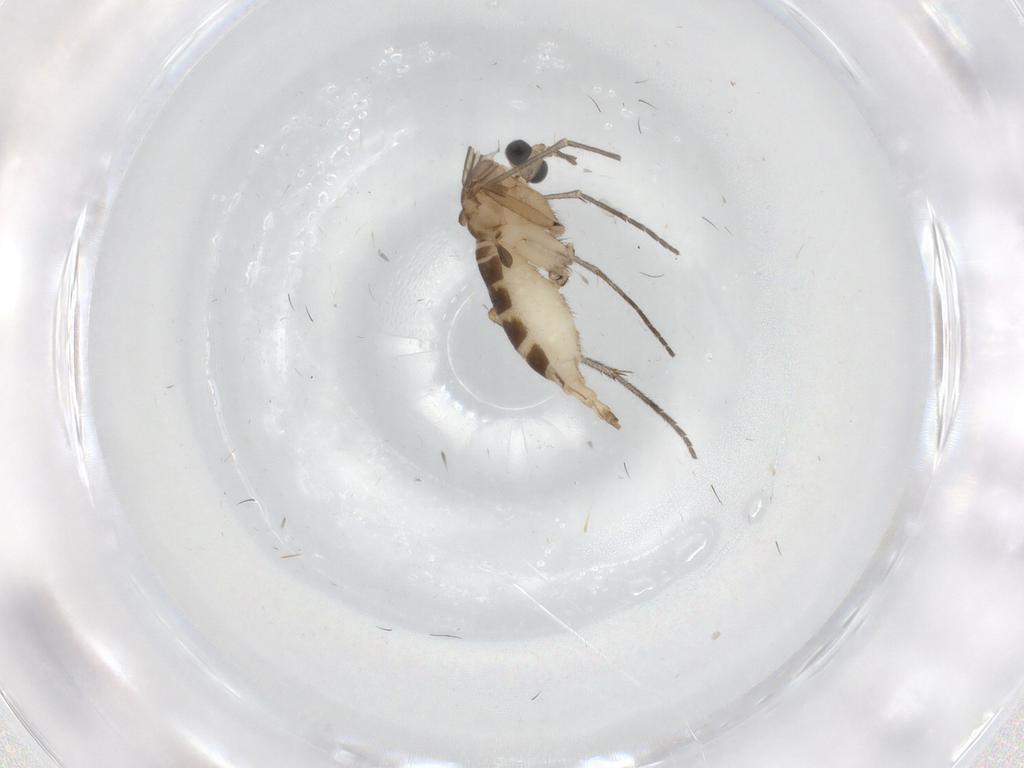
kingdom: Animalia
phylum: Arthropoda
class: Insecta
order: Diptera
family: Sciaridae
